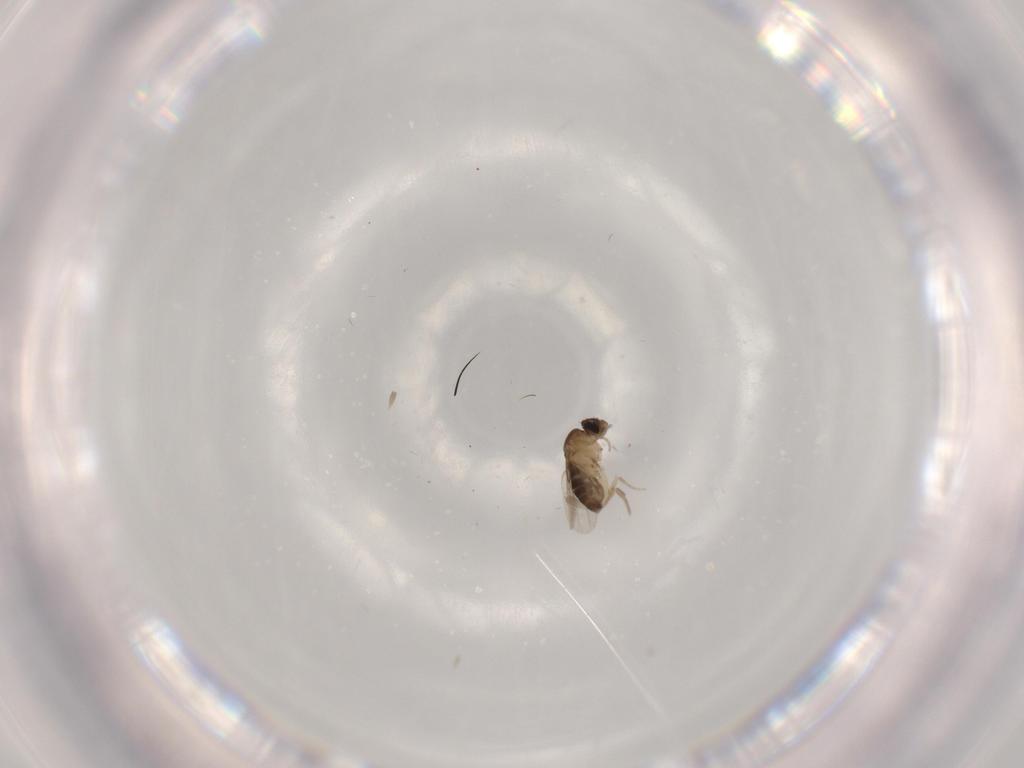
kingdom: Animalia
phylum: Arthropoda
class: Insecta
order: Diptera
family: Dolichopodidae
